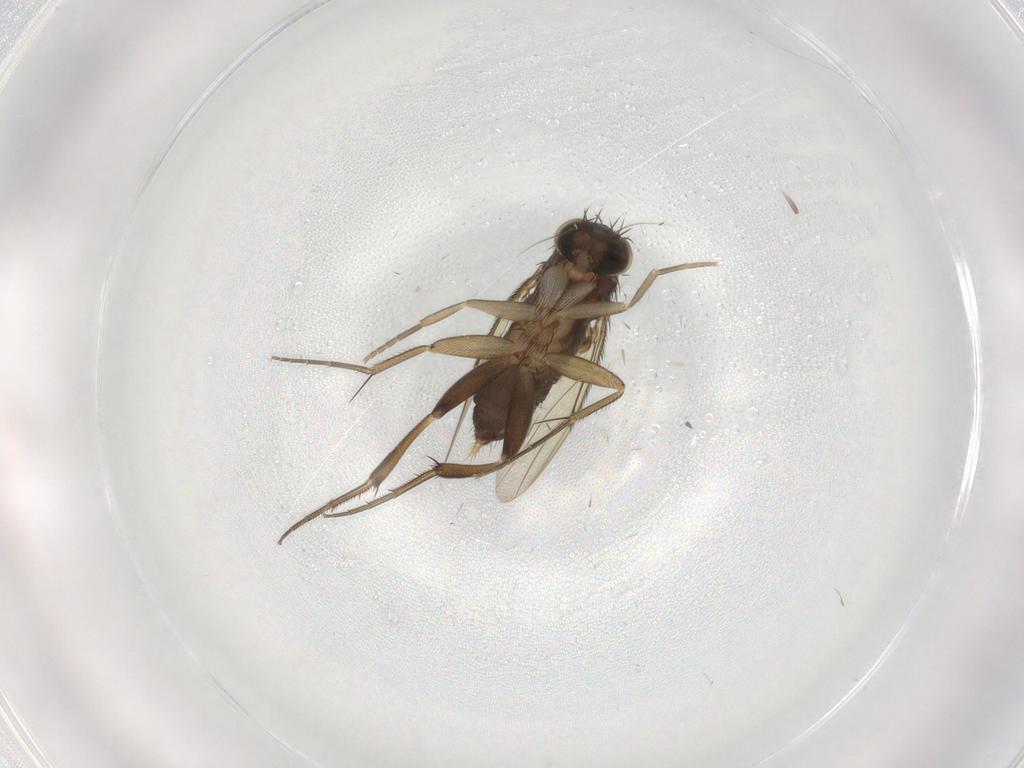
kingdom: Animalia
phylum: Arthropoda
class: Insecta
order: Diptera
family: Phoridae
